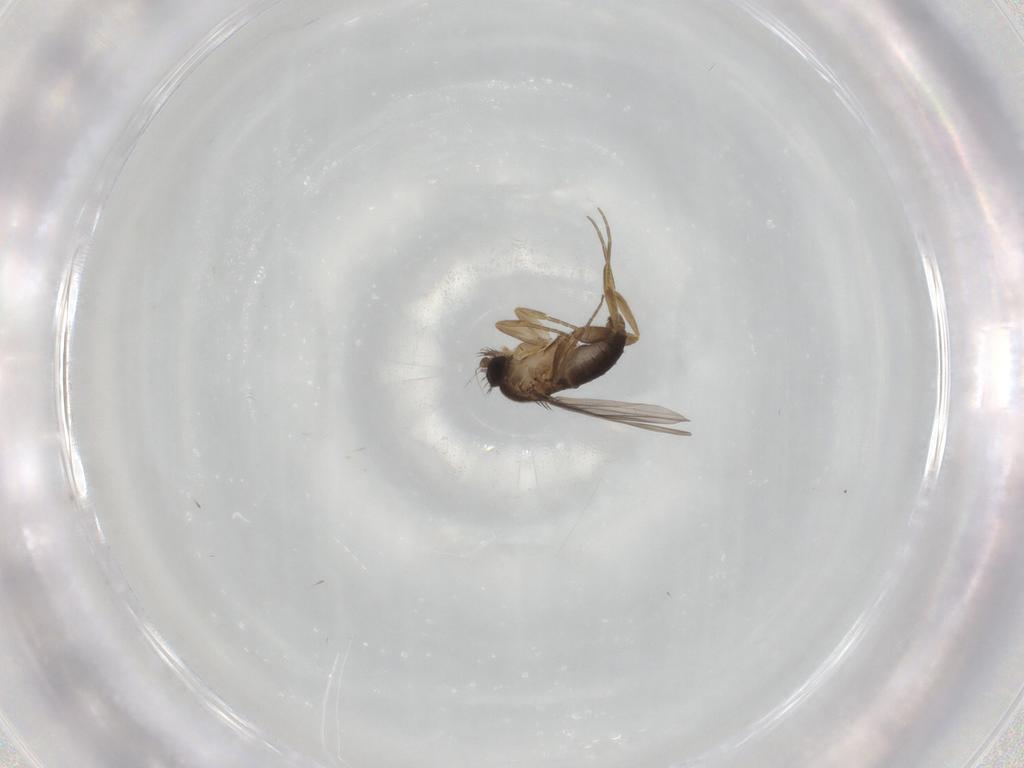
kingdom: Animalia
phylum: Arthropoda
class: Insecta
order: Diptera
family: Phoridae
